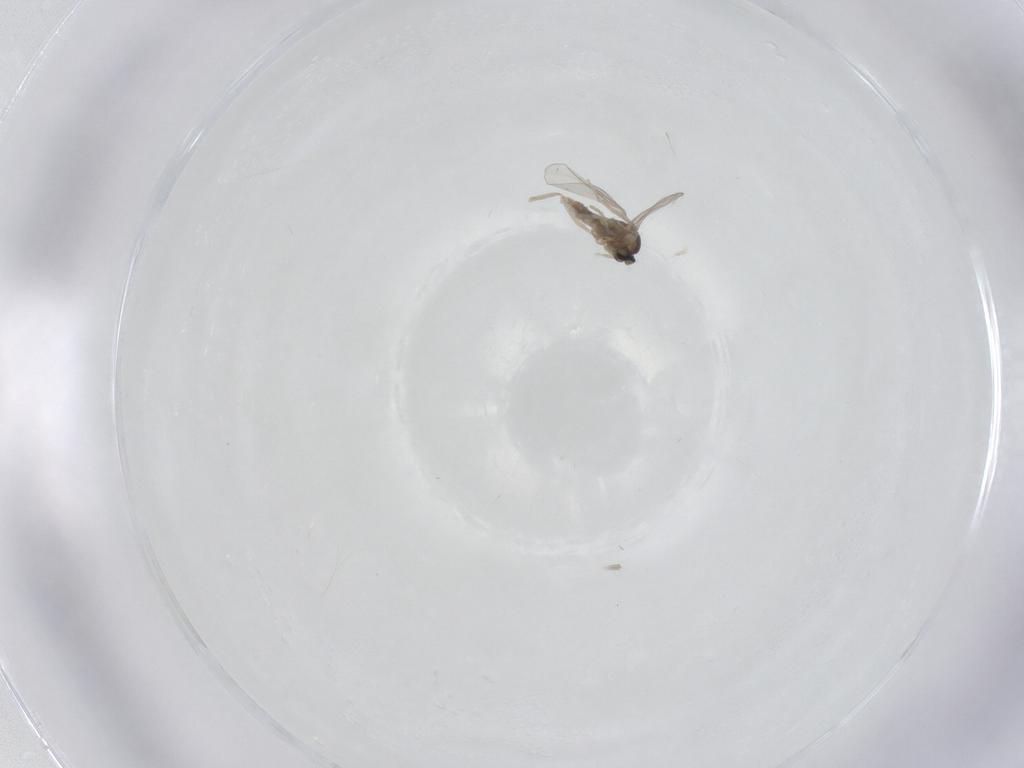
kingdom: Animalia
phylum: Arthropoda
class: Insecta
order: Diptera
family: Cecidomyiidae
